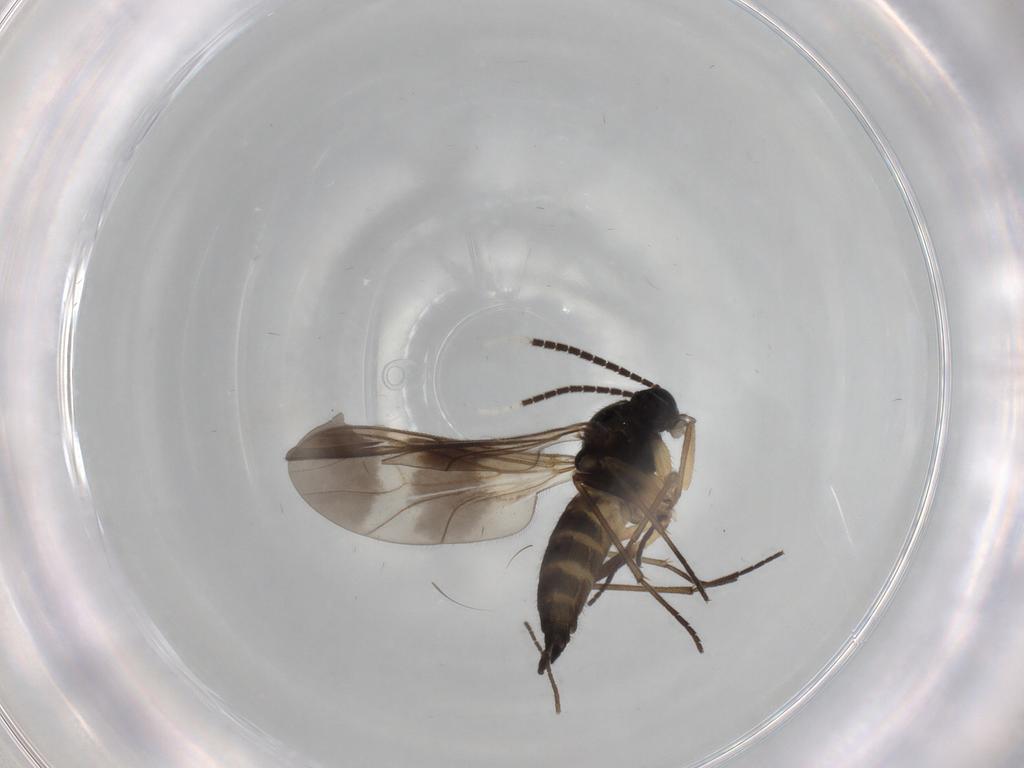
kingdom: Animalia
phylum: Arthropoda
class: Insecta
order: Diptera
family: Sciaridae
